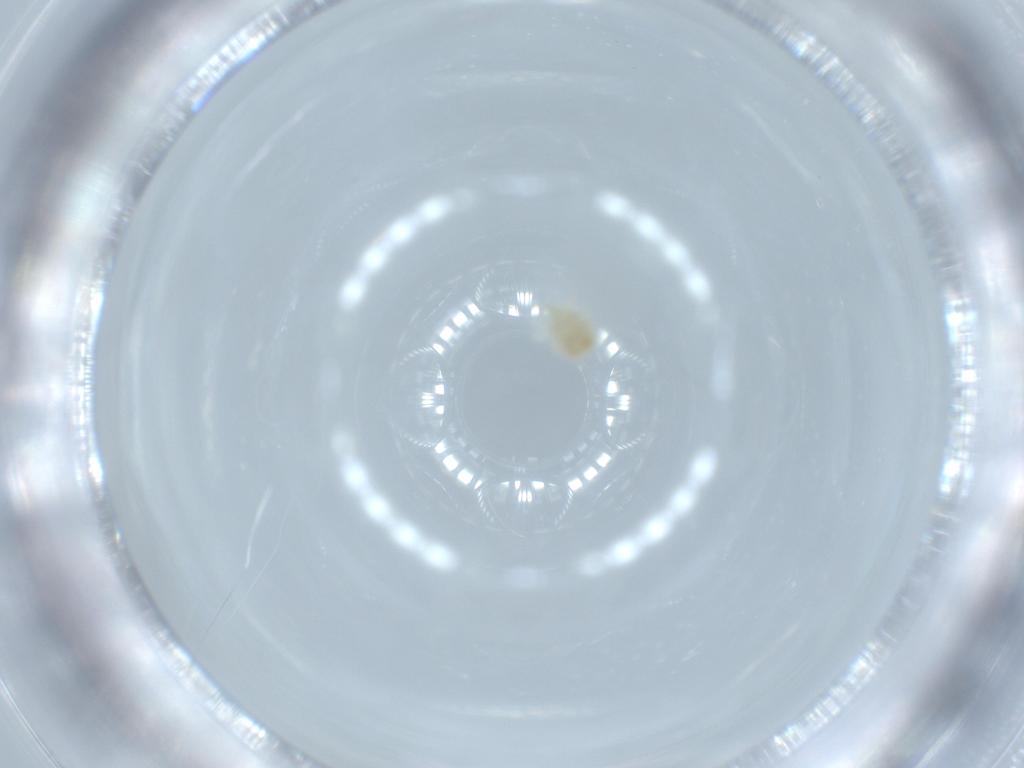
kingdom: Animalia
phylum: Arthropoda
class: Arachnida
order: Trombidiformes
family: Anystidae
